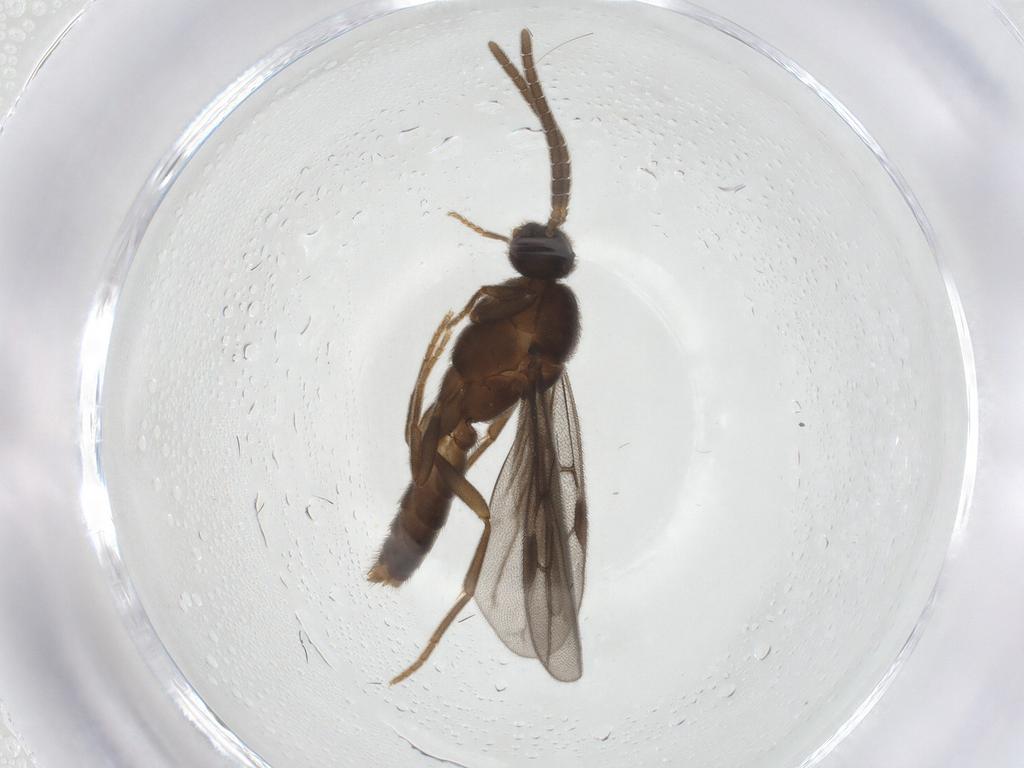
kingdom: Animalia
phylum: Arthropoda
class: Insecta
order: Hymenoptera
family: Formicidae
